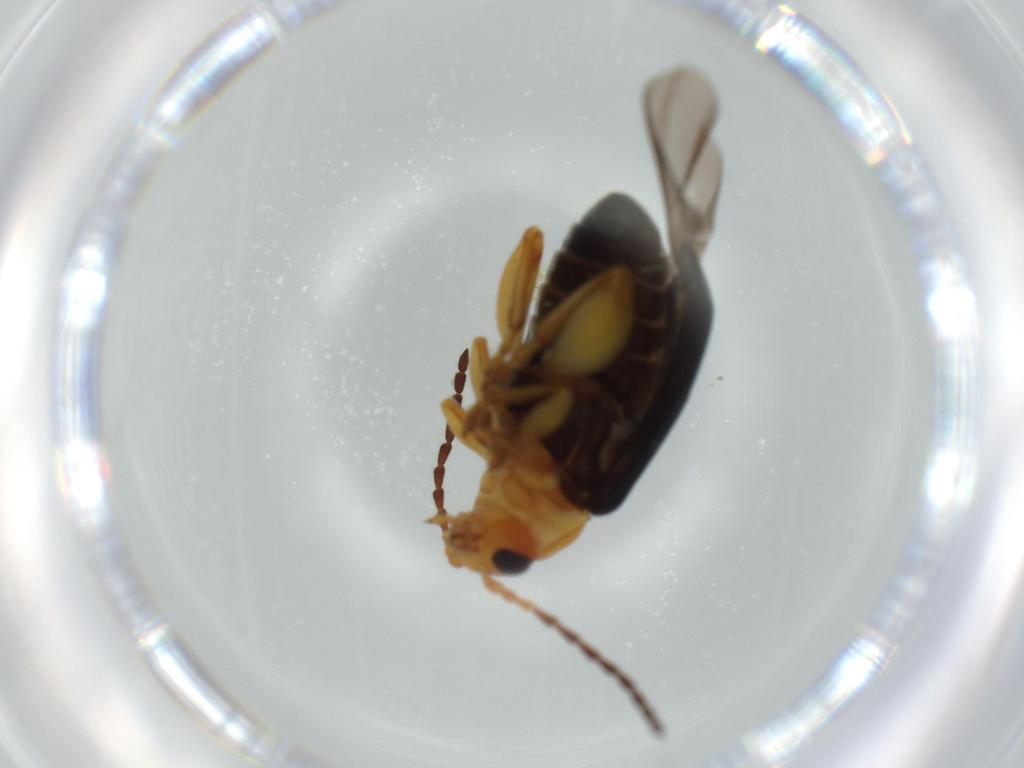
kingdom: Animalia
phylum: Arthropoda
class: Insecta
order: Coleoptera
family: Chrysomelidae
